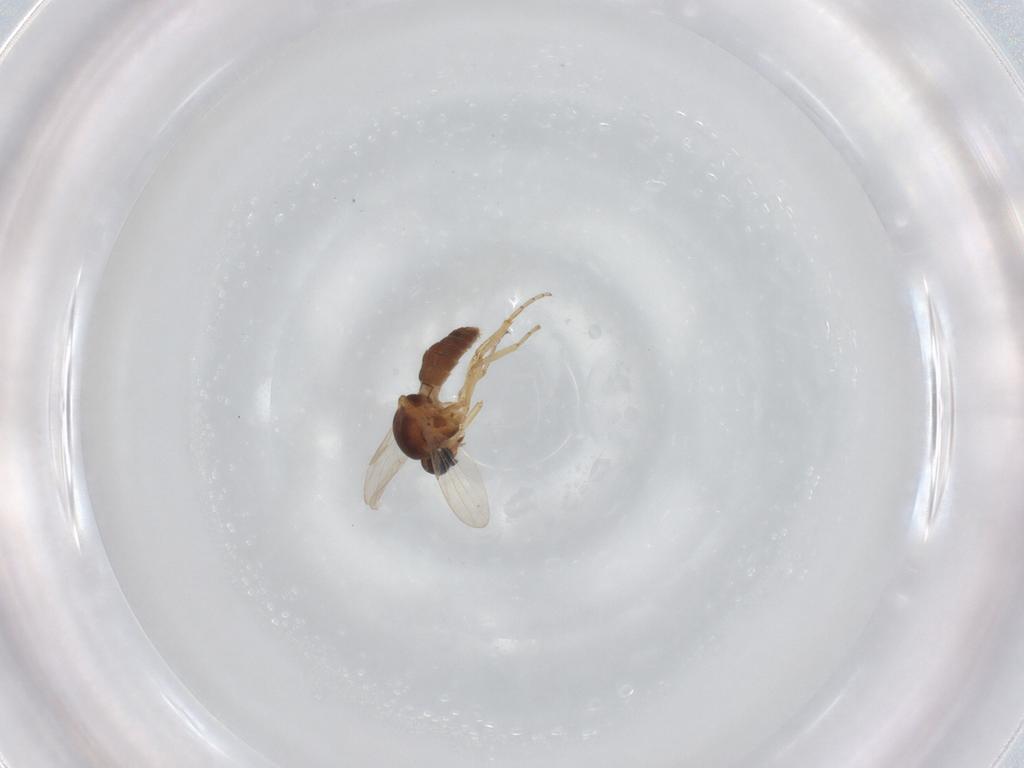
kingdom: Animalia
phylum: Arthropoda
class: Insecta
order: Diptera
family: Ceratopogonidae
